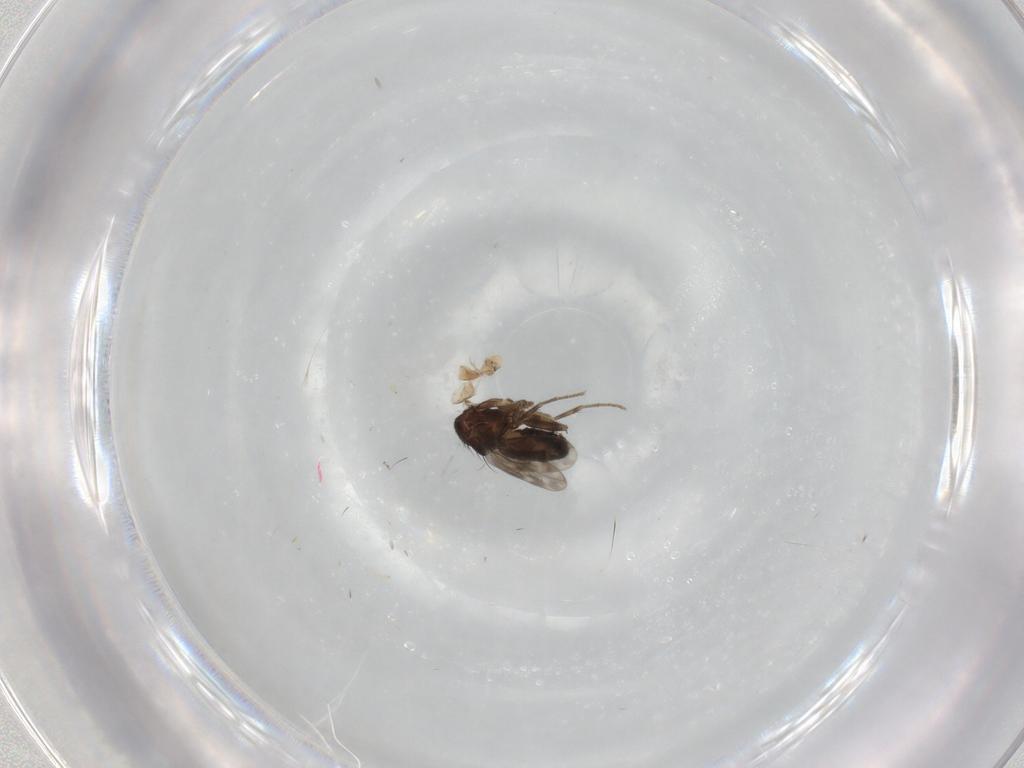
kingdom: Animalia
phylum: Arthropoda
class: Insecta
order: Diptera
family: Sphaeroceridae
